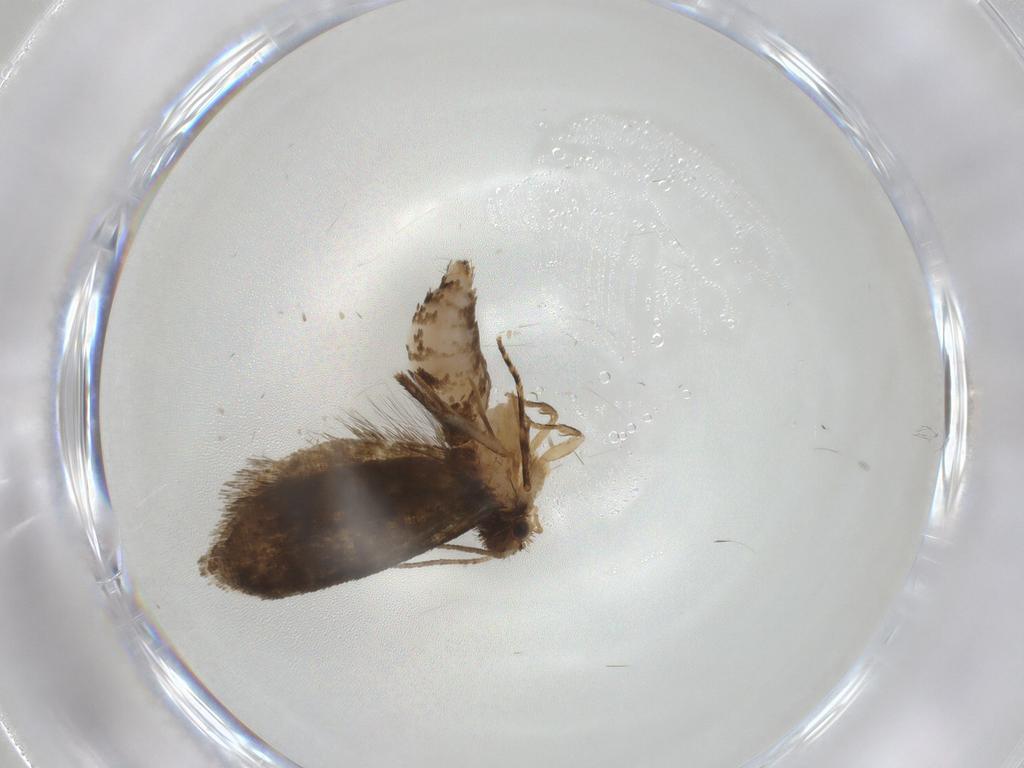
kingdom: Animalia
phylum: Arthropoda
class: Insecta
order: Lepidoptera
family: Crambidae
